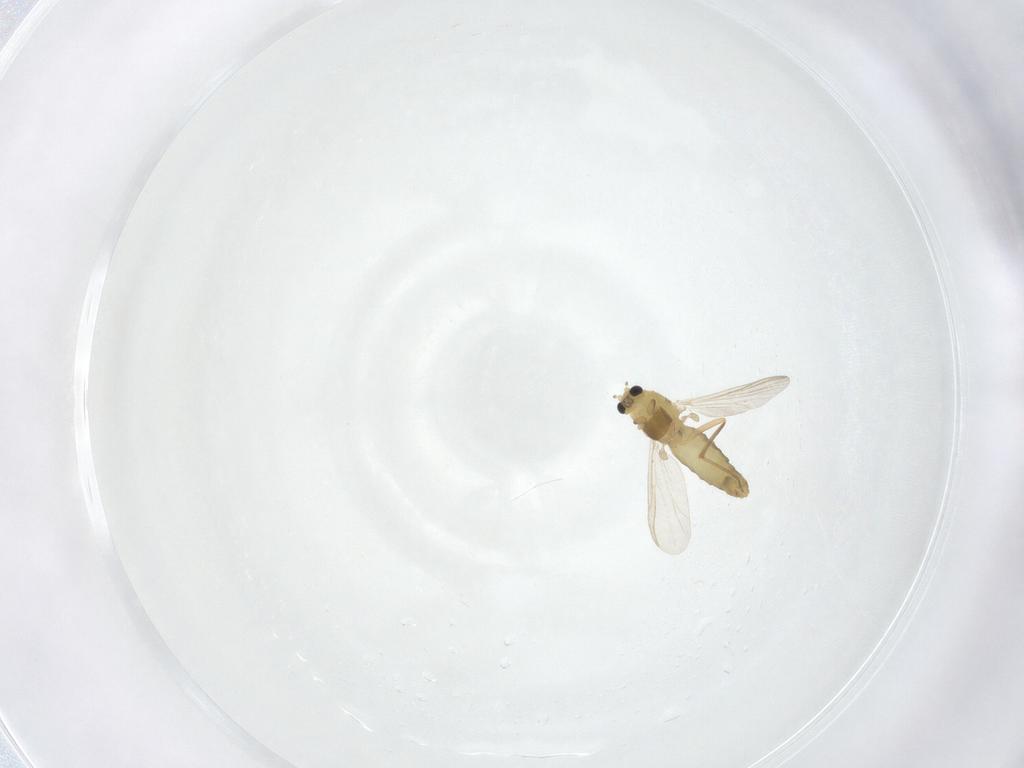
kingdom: Animalia
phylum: Arthropoda
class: Insecta
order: Diptera
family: Chironomidae
